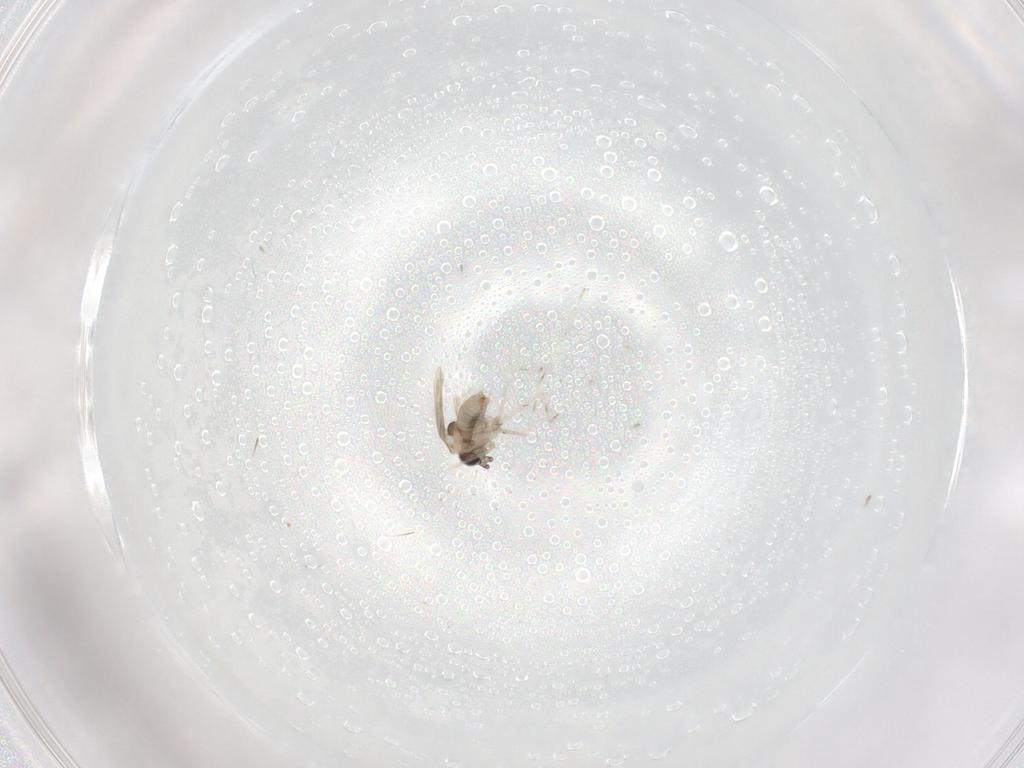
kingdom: Animalia
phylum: Arthropoda
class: Insecta
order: Diptera
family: Cecidomyiidae
